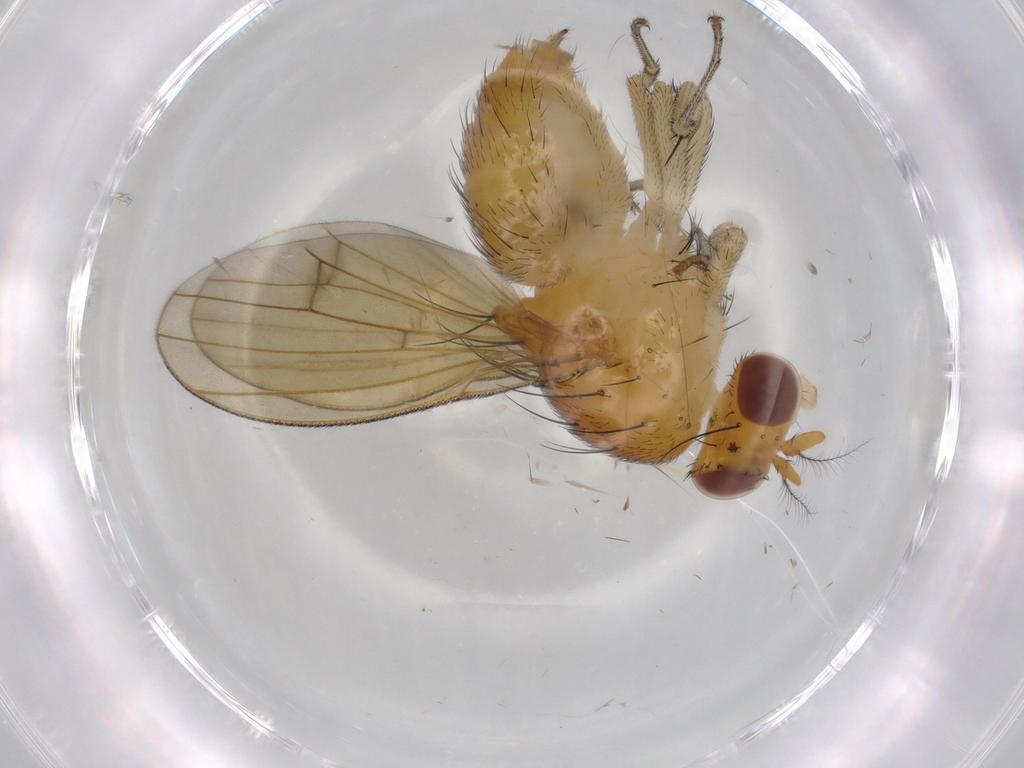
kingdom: Animalia
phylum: Arthropoda
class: Insecta
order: Diptera
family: Lauxaniidae
